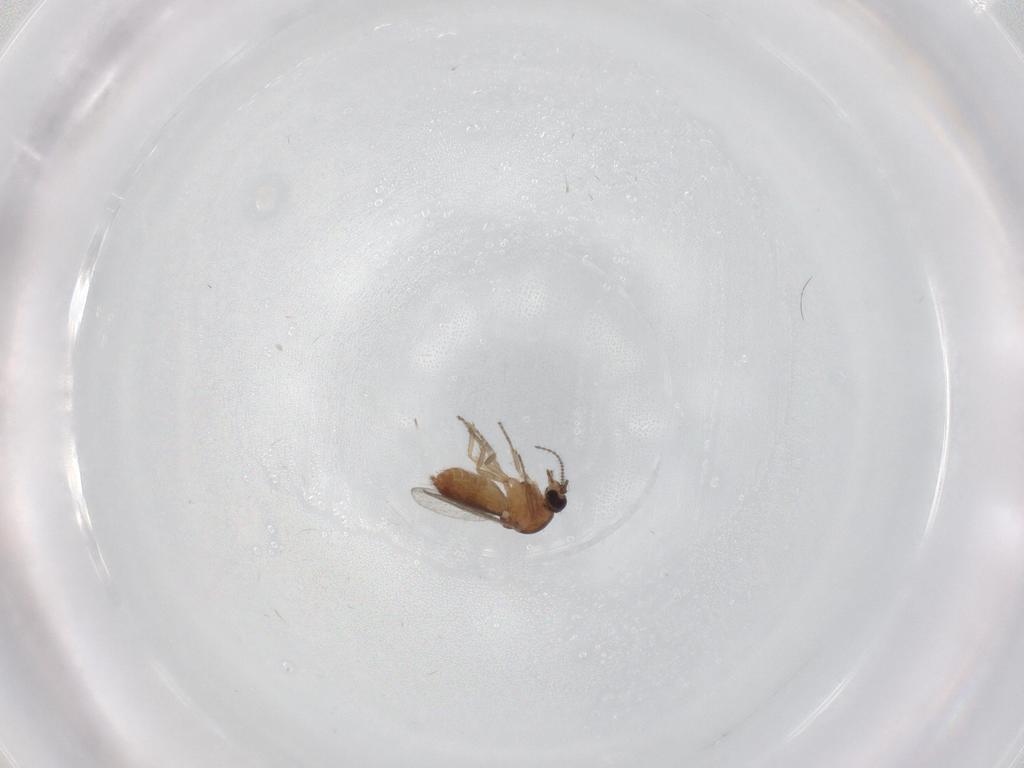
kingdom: Animalia
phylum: Arthropoda
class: Insecta
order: Diptera
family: Ceratopogonidae
